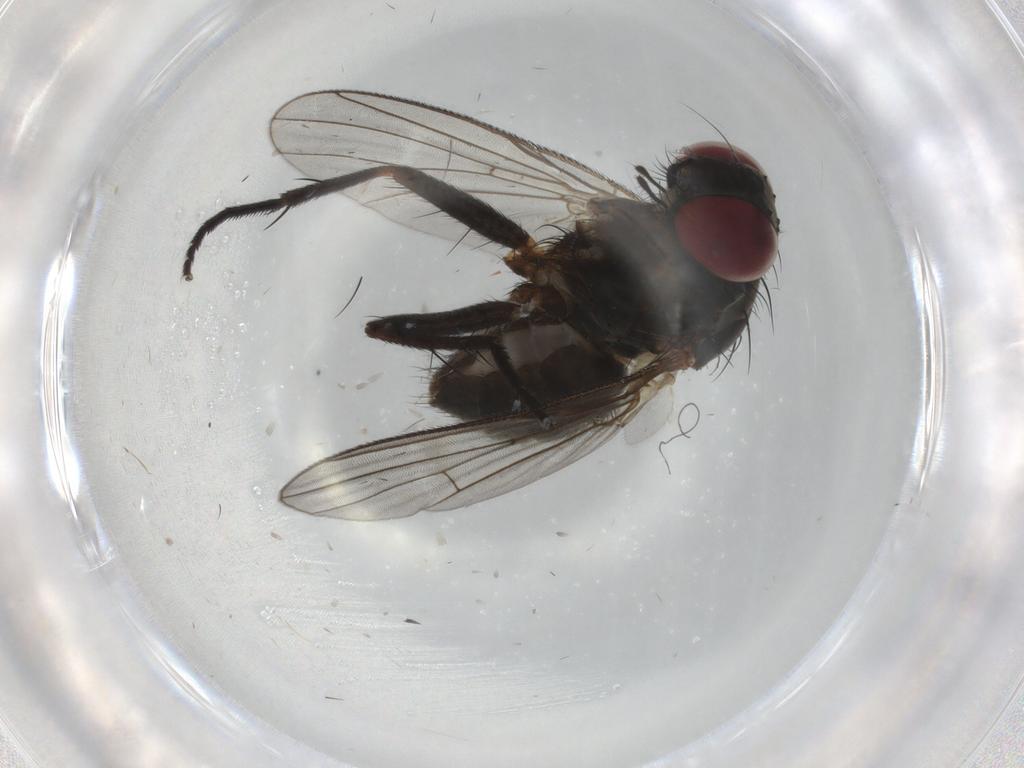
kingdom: Animalia
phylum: Arthropoda
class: Insecta
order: Diptera
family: Muscidae
